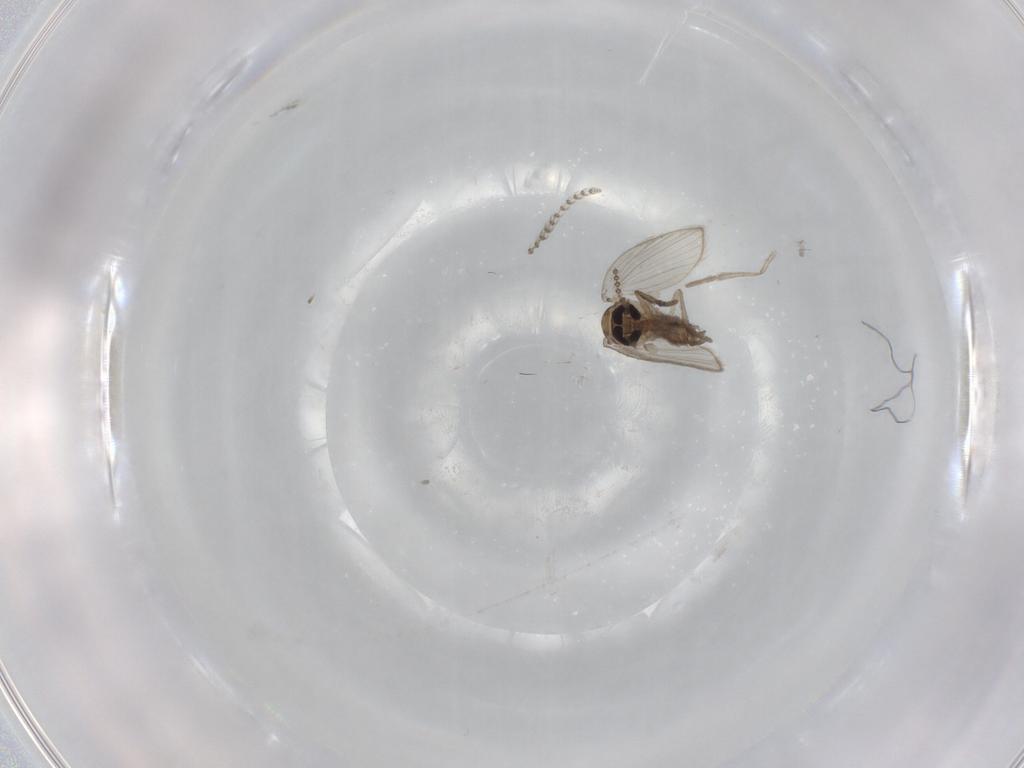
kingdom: Animalia
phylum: Arthropoda
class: Insecta
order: Diptera
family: Psychodidae
